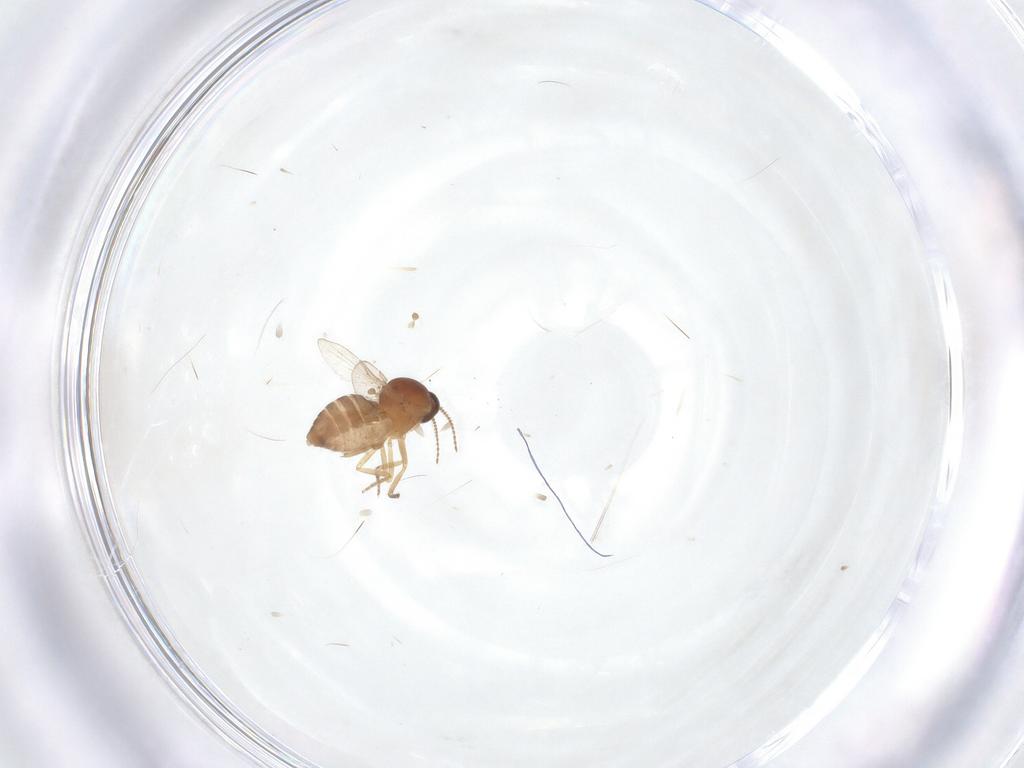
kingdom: Animalia
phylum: Arthropoda
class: Insecta
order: Diptera
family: Ceratopogonidae
